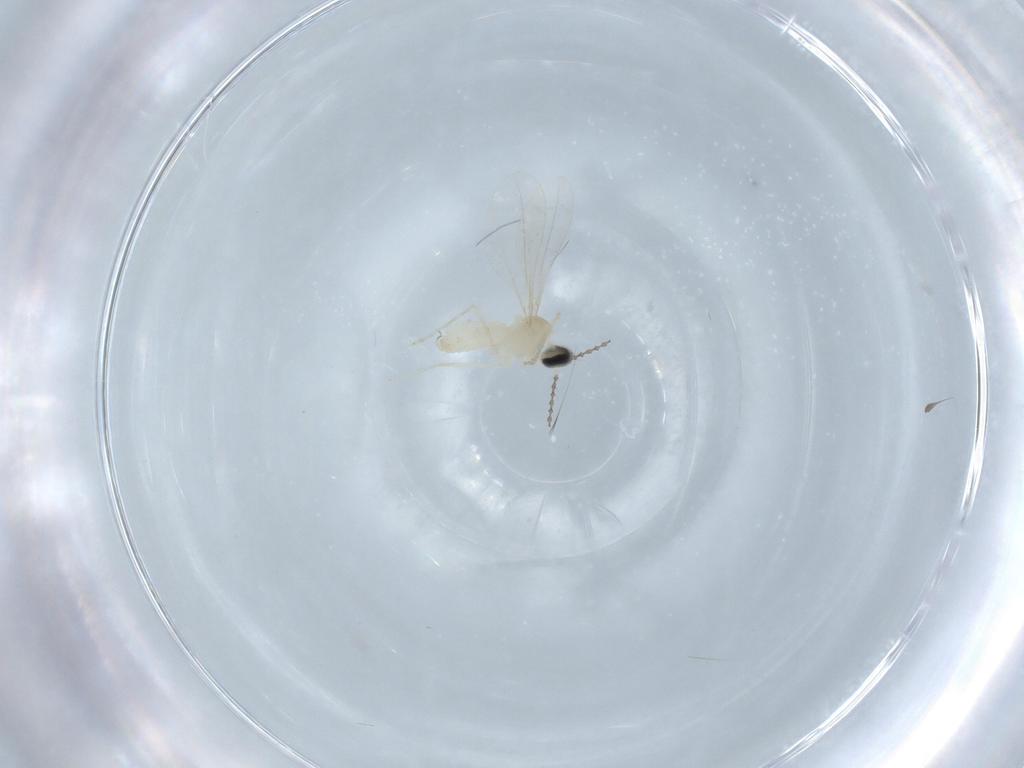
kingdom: Animalia
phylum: Arthropoda
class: Insecta
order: Diptera
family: Cecidomyiidae
